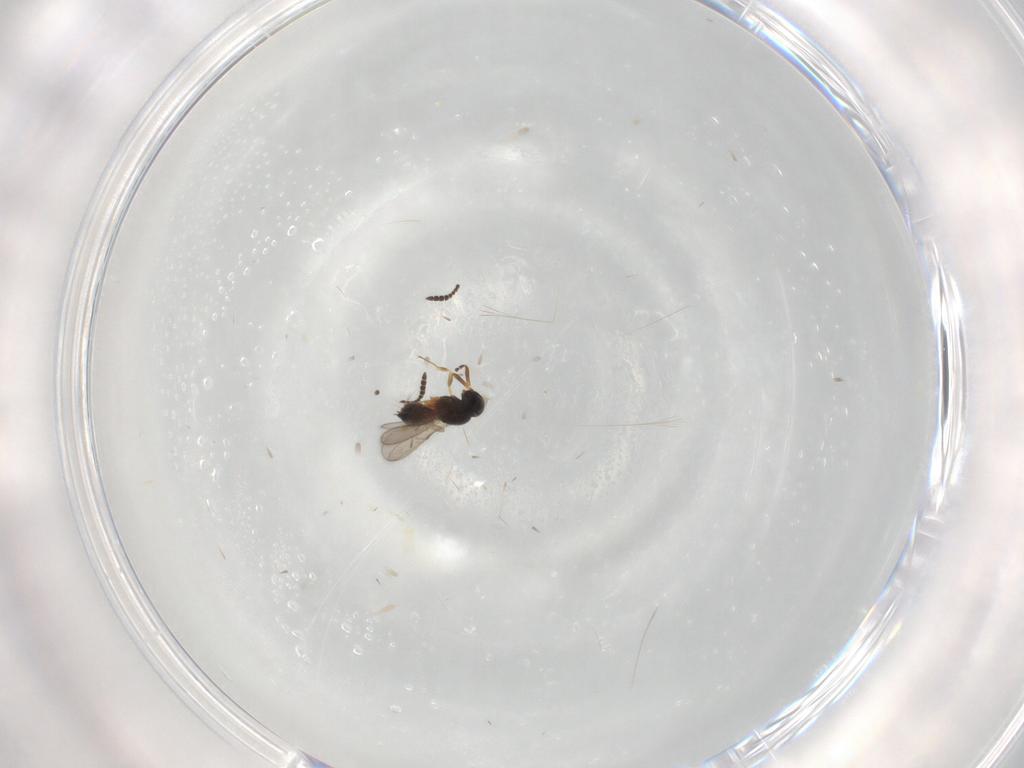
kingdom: Animalia
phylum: Arthropoda
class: Insecta
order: Hymenoptera
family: Scelionidae
